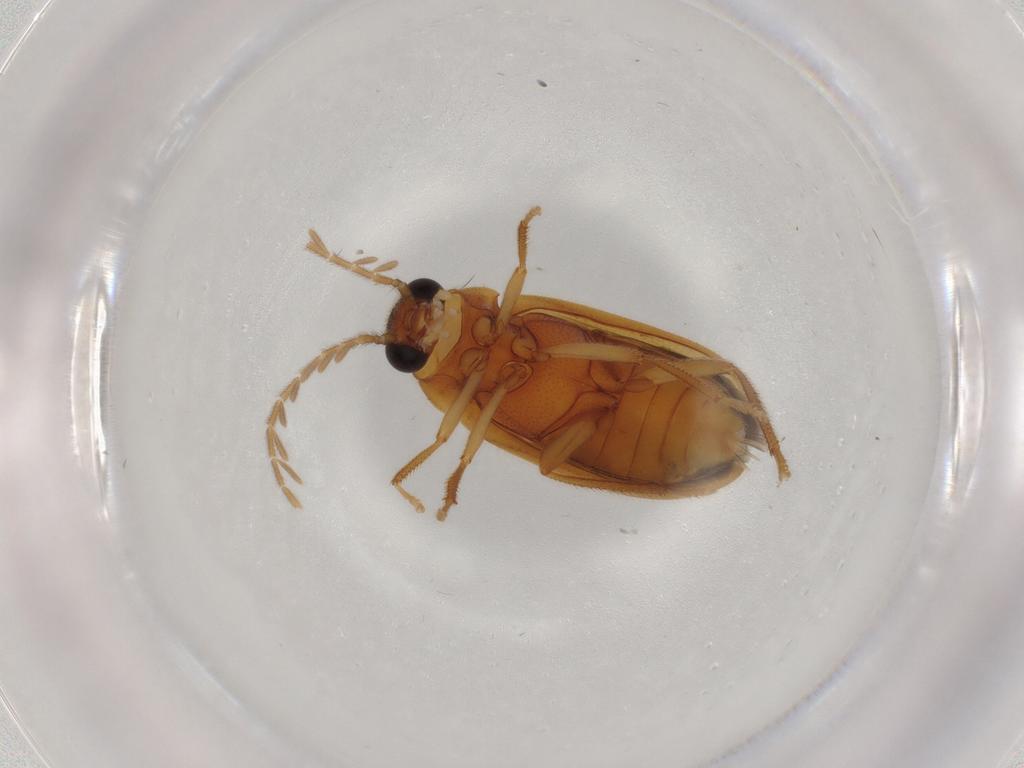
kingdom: Animalia
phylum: Arthropoda
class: Insecta
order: Coleoptera
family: Ptilodactylidae
